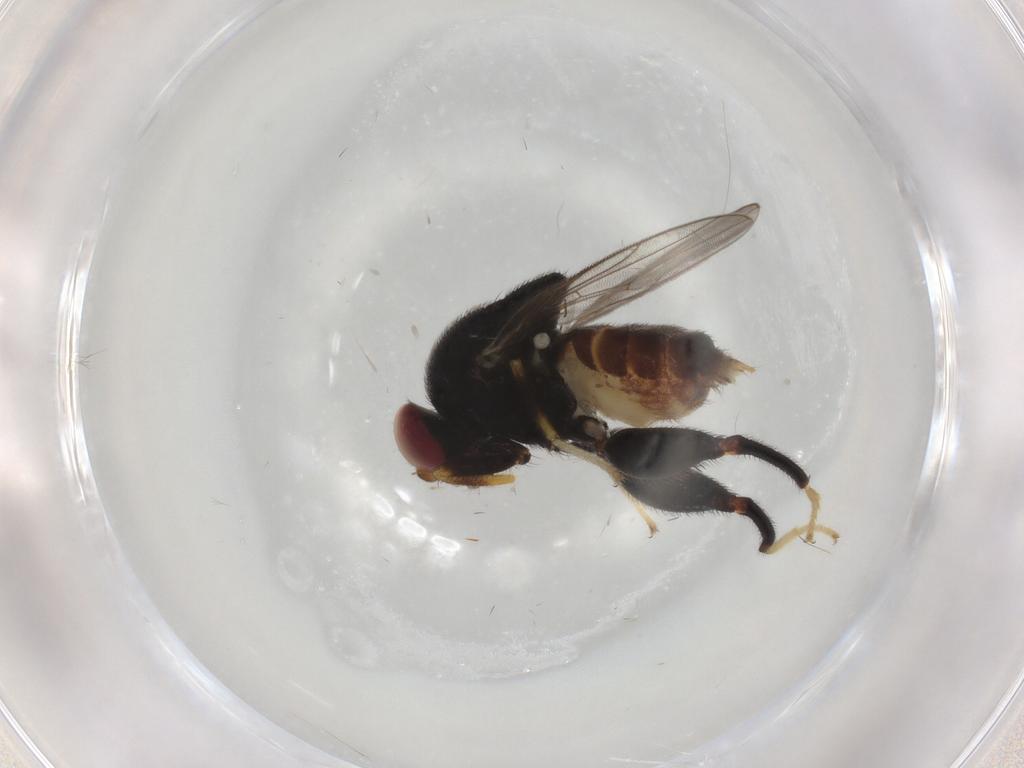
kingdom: Animalia
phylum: Arthropoda
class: Insecta
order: Diptera
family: Chloropidae
